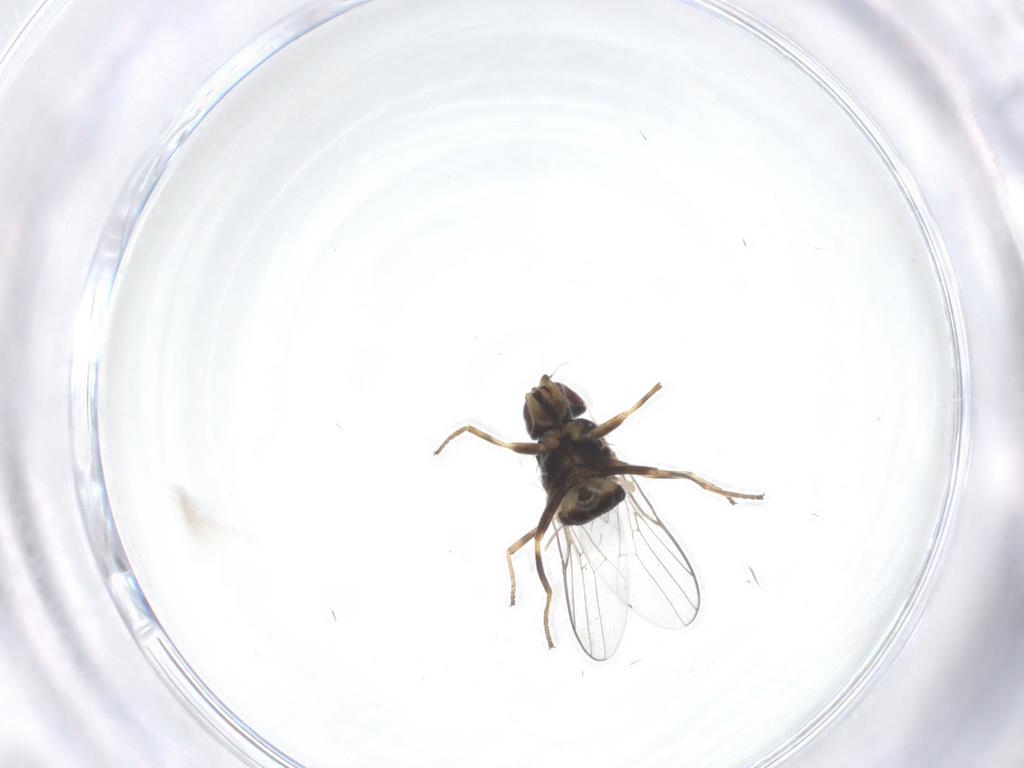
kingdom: Animalia
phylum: Arthropoda
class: Insecta
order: Diptera
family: Chloropidae
